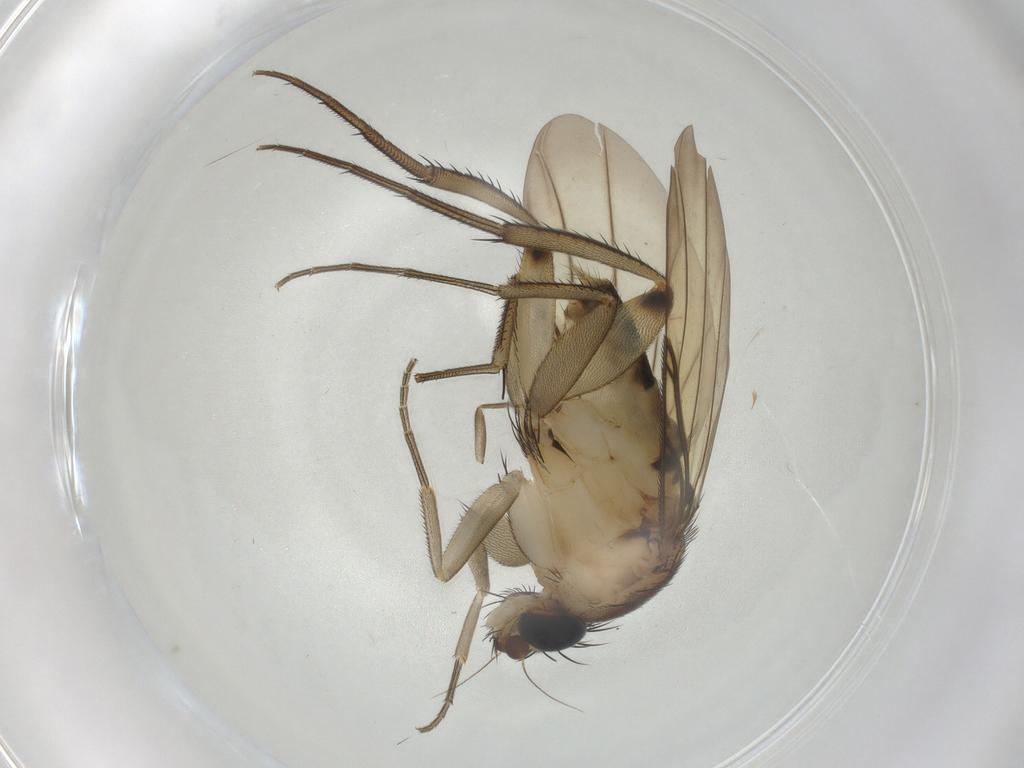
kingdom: Animalia
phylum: Arthropoda
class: Insecta
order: Diptera
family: Phoridae
